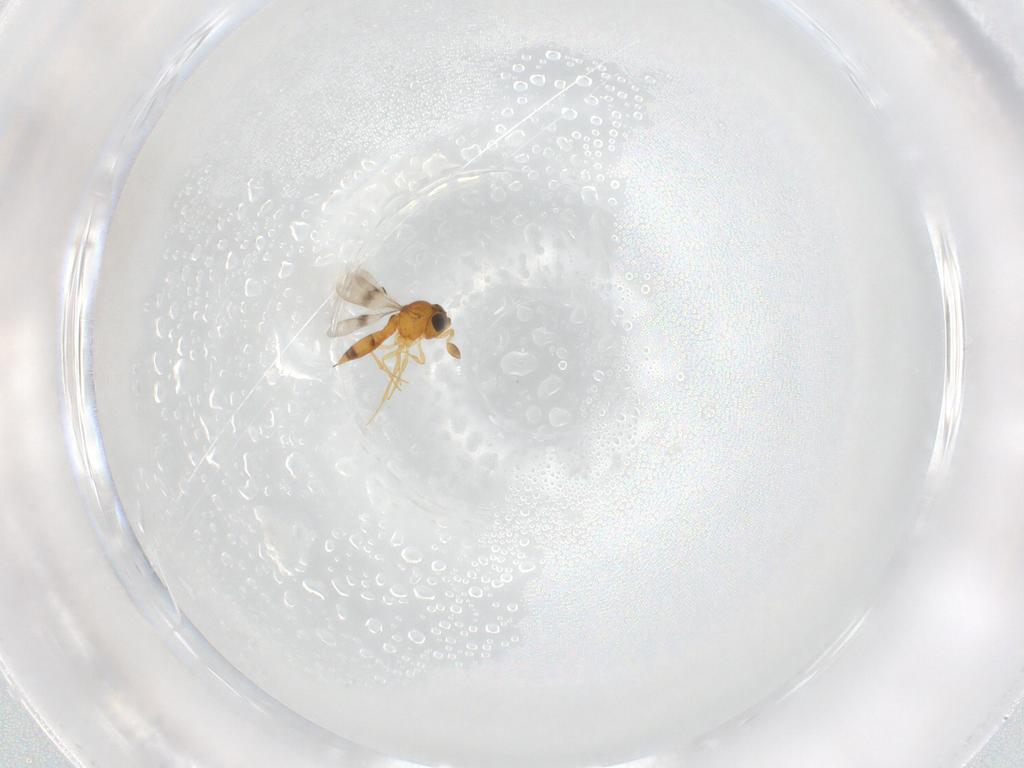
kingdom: Animalia
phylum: Arthropoda
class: Insecta
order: Hymenoptera
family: Scelionidae
